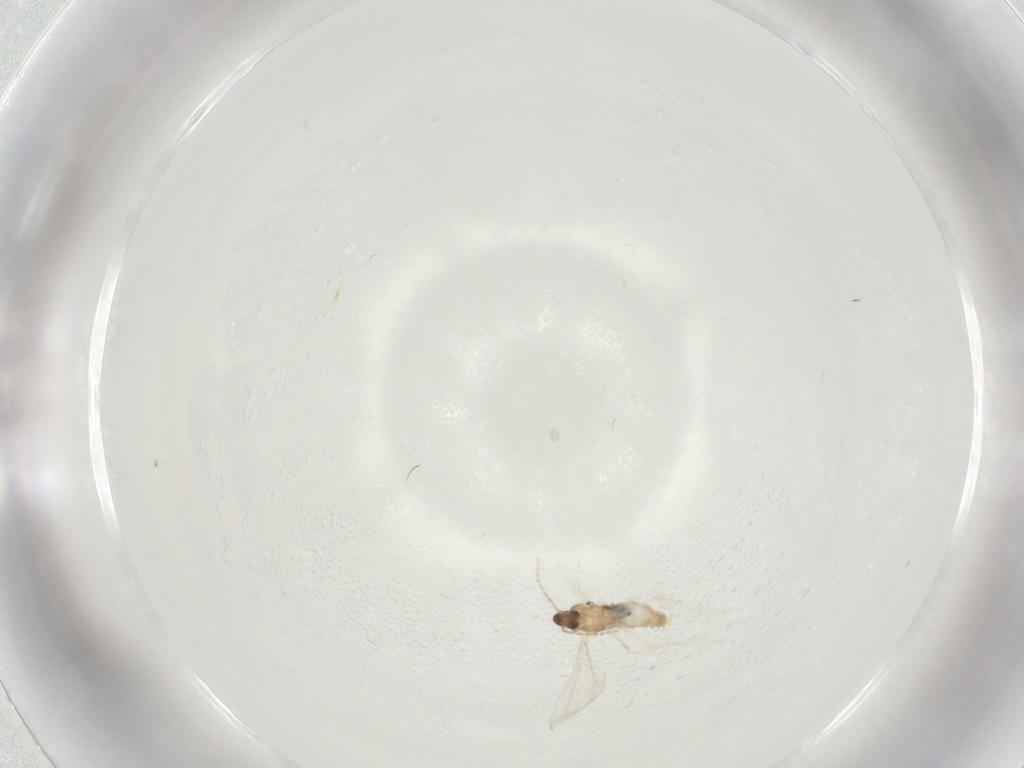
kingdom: Animalia
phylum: Arthropoda
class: Insecta
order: Diptera
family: Cecidomyiidae
